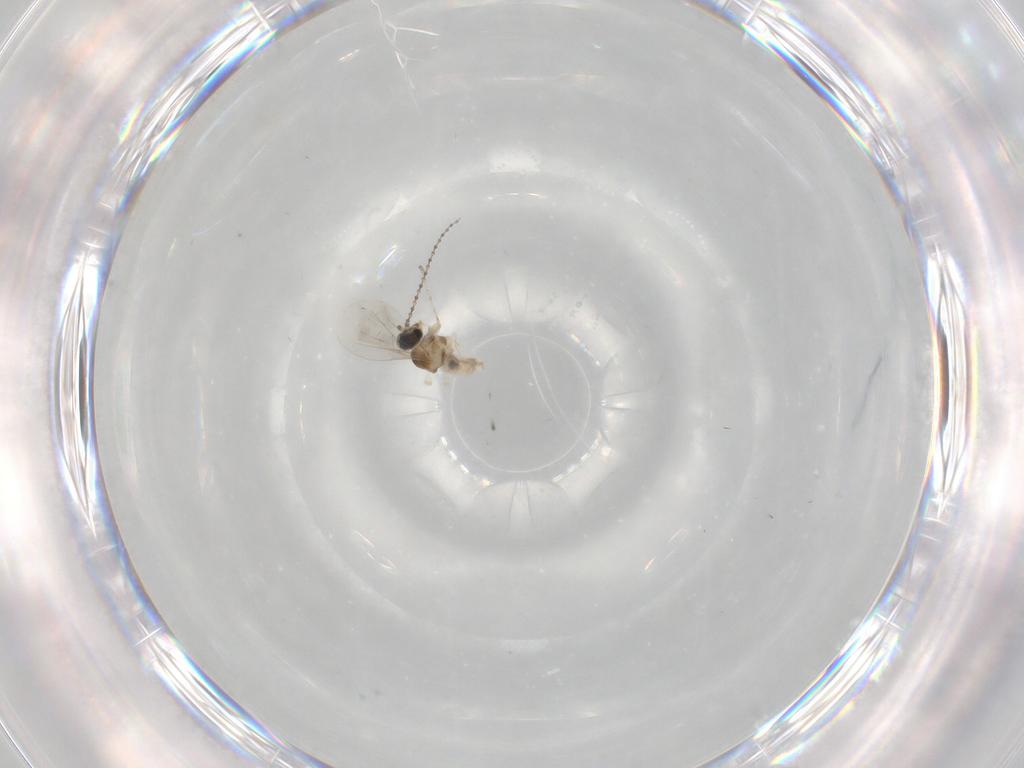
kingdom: Animalia
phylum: Arthropoda
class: Insecta
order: Diptera
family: Sciaridae
